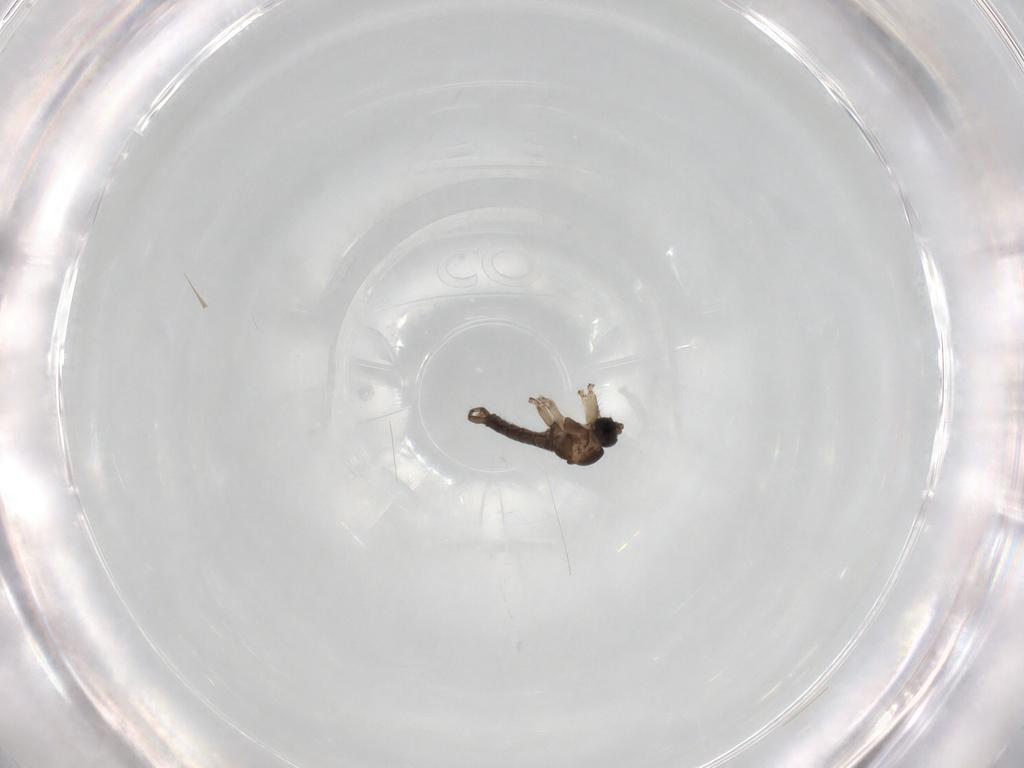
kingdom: Animalia
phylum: Arthropoda
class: Insecta
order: Diptera
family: Sciaridae
